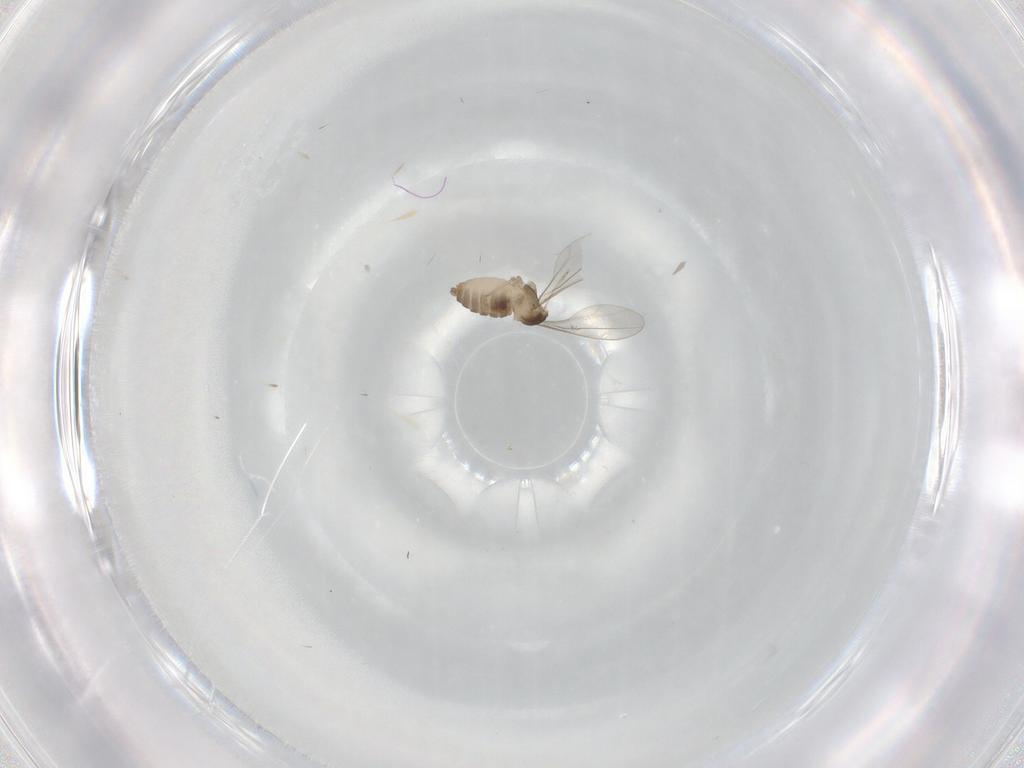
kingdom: Animalia
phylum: Arthropoda
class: Insecta
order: Diptera
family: Cecidomyiidae
